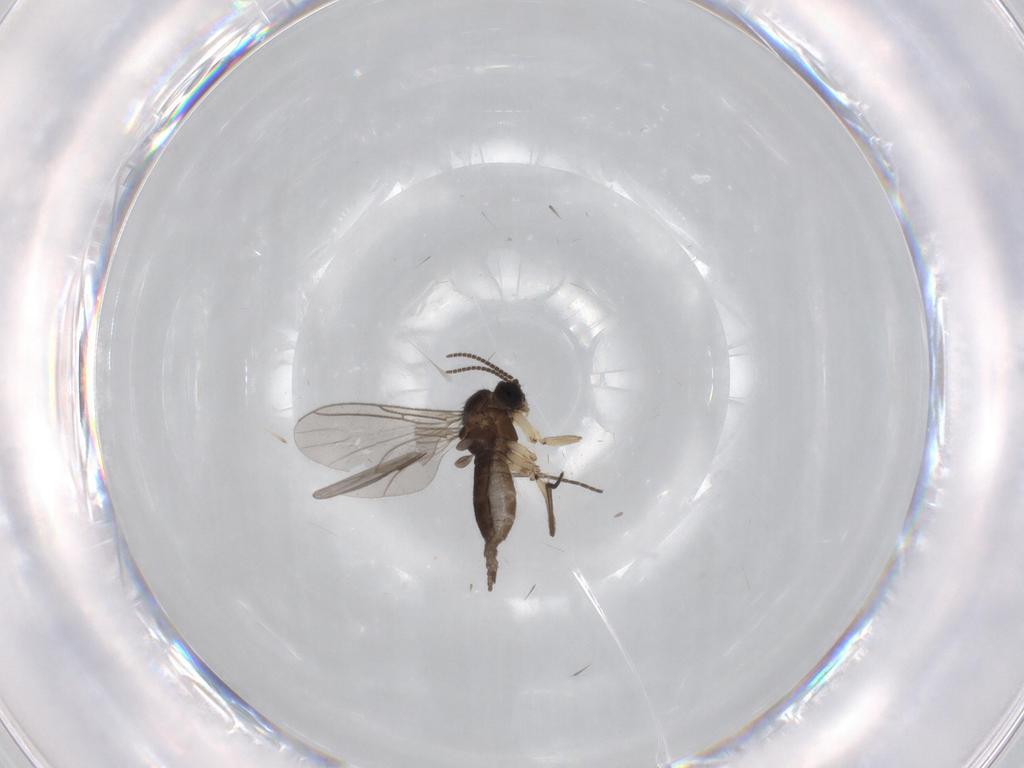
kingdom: Animalia
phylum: Arthropoda
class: Insecta
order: Diptera
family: Sciaridae
